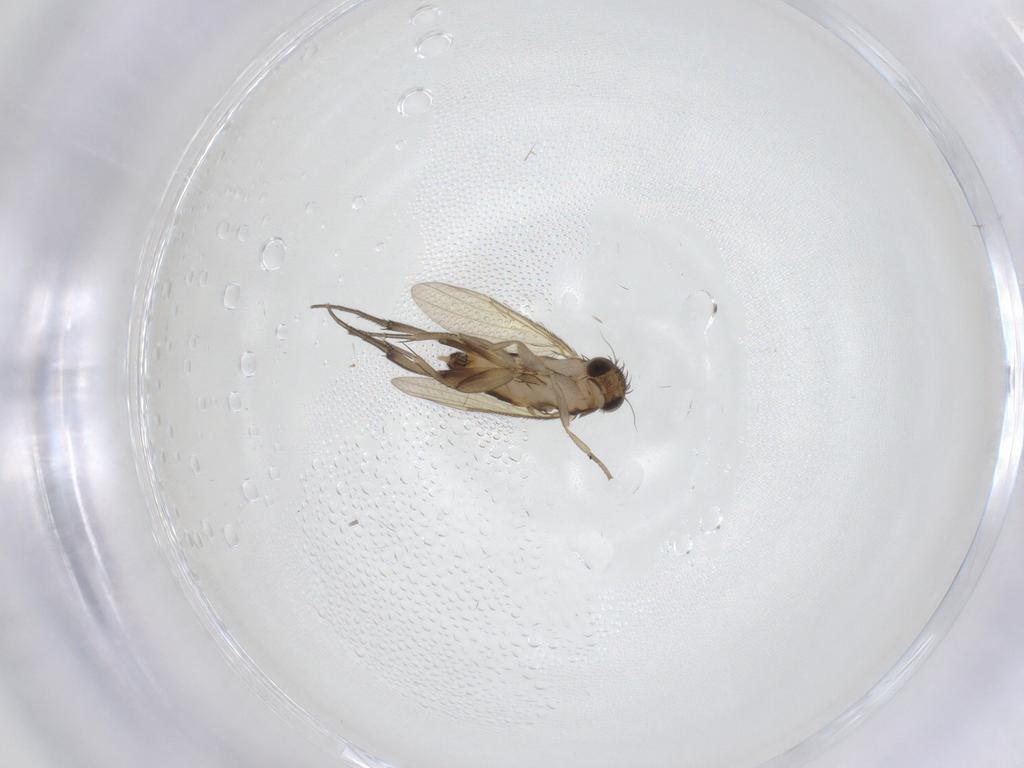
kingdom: Animalia
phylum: Arthropoda
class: Insecta
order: Diptera
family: Phoridae
